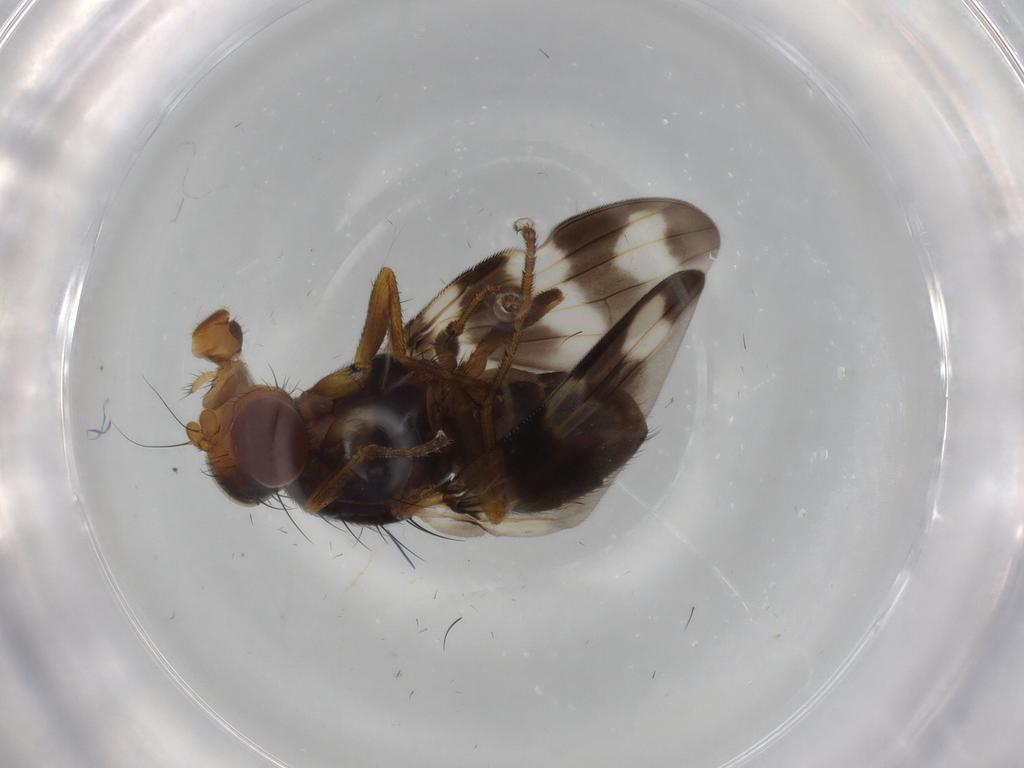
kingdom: Animalia
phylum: Arthropoda
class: Insecta
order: Diptera
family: Ulidiidae
